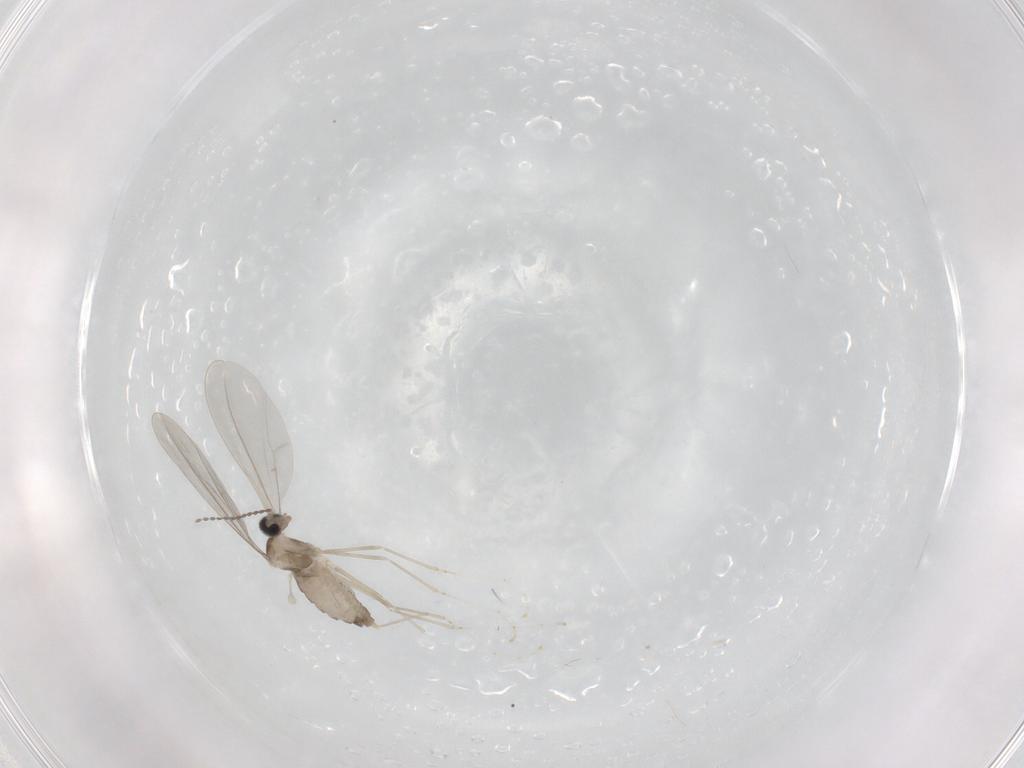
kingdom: Animalia
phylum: Arthropoda
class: Insecta
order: Diptera
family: Cecidomyiidae
